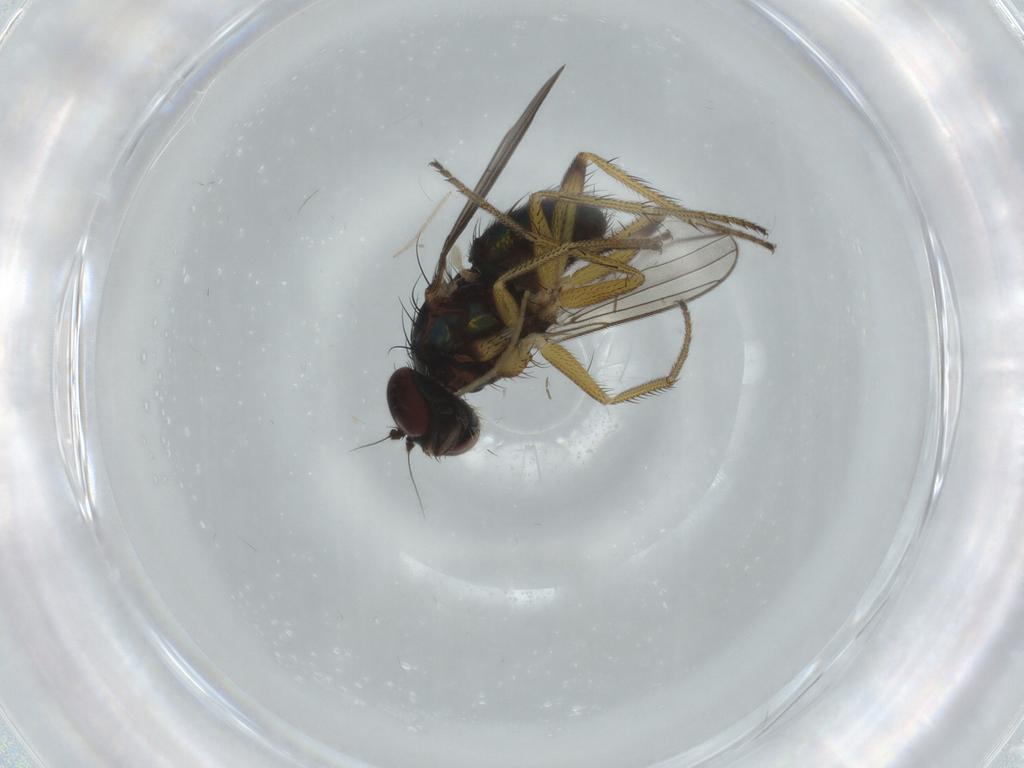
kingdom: Animalia
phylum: Arthropoda
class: Insecta
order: Diptera
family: Dolichopodidae
